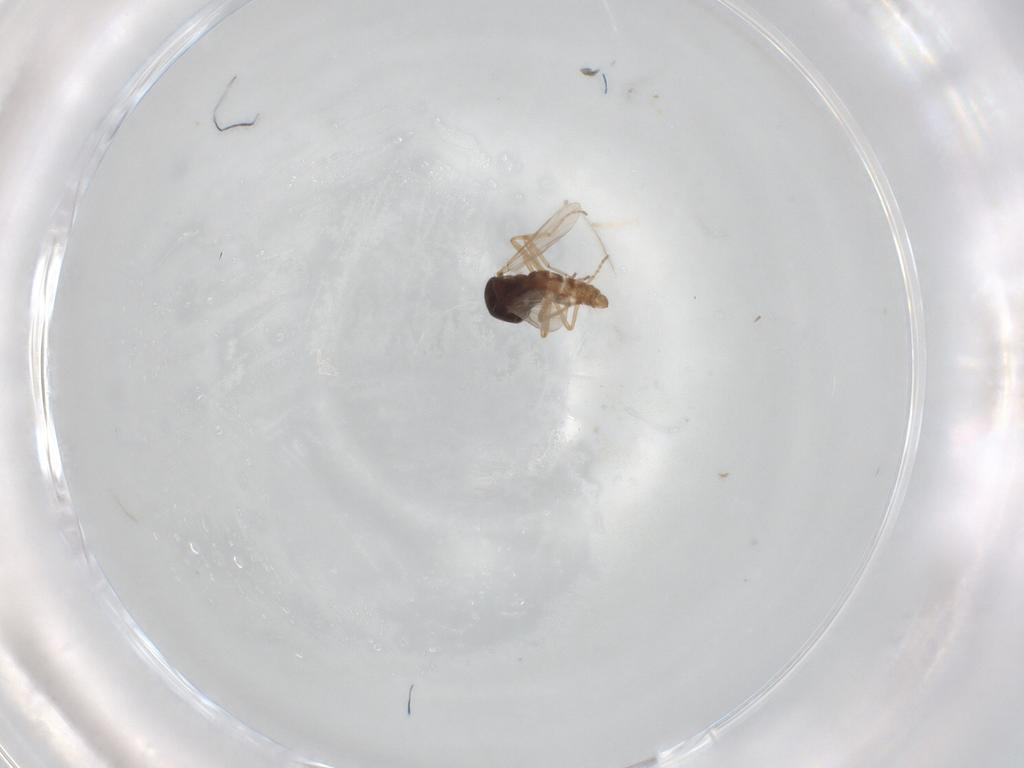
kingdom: Animalia
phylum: Arthropoda
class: Insecta
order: Diptera
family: Ceratopogonidae
